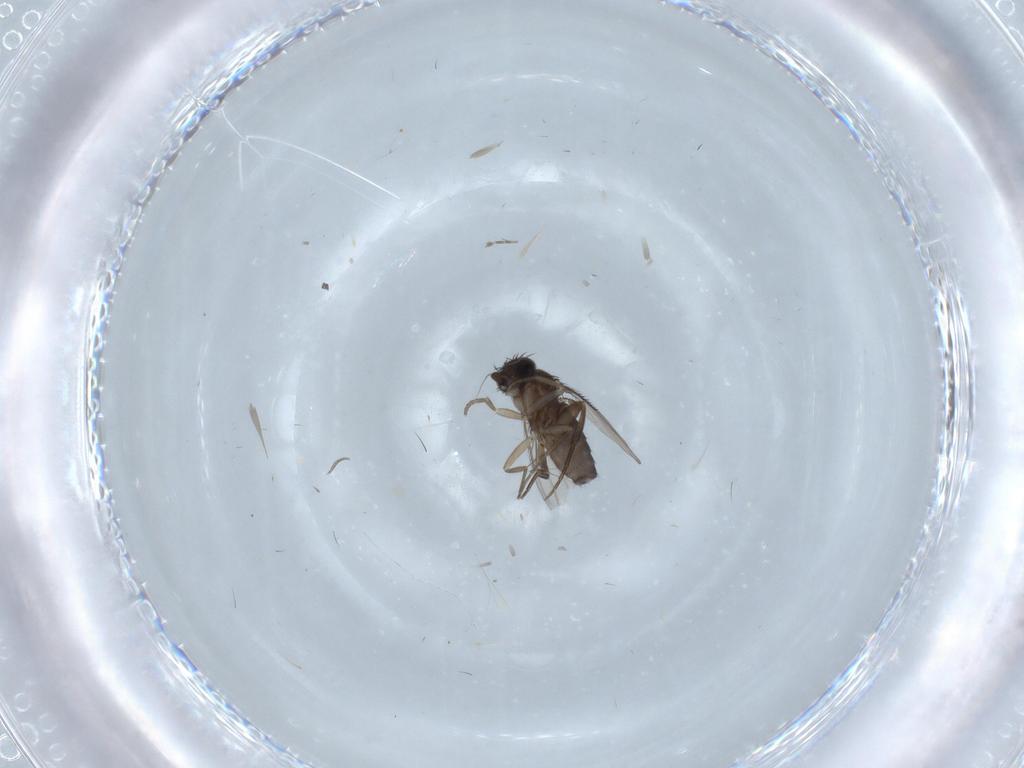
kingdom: Animalia
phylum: Arthropoda
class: Insecta
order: Diptera
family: Phoridae
